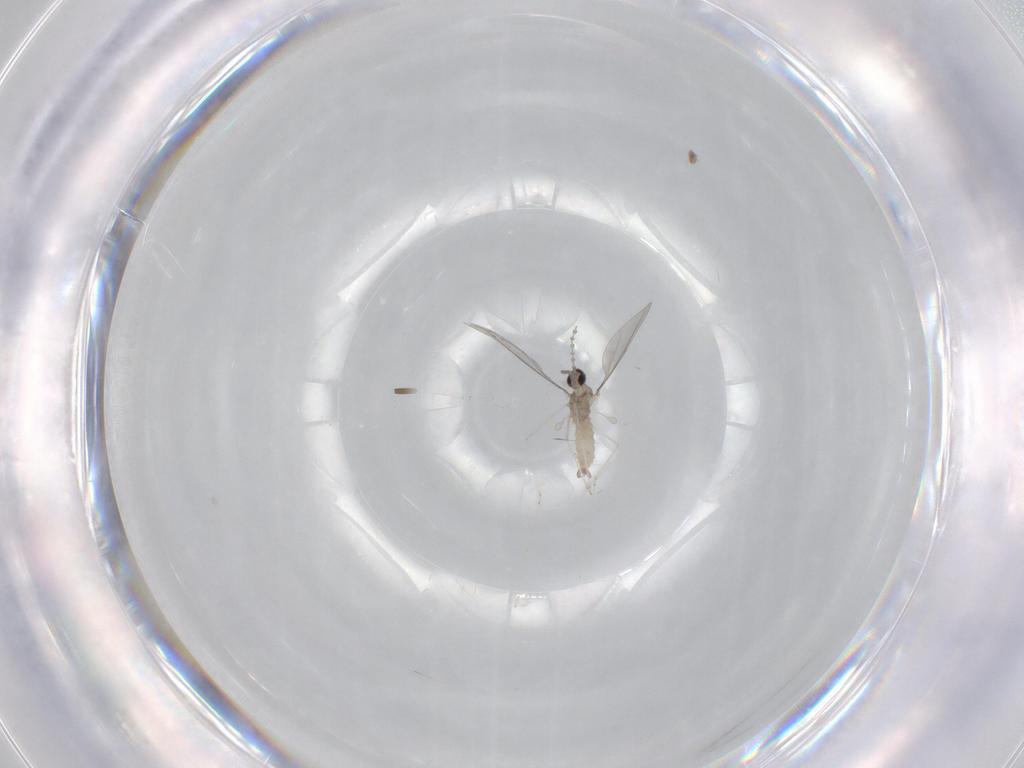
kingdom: Animalia
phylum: Arthropoda
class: Insecta
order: Diptera
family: Cecidomyiidae
